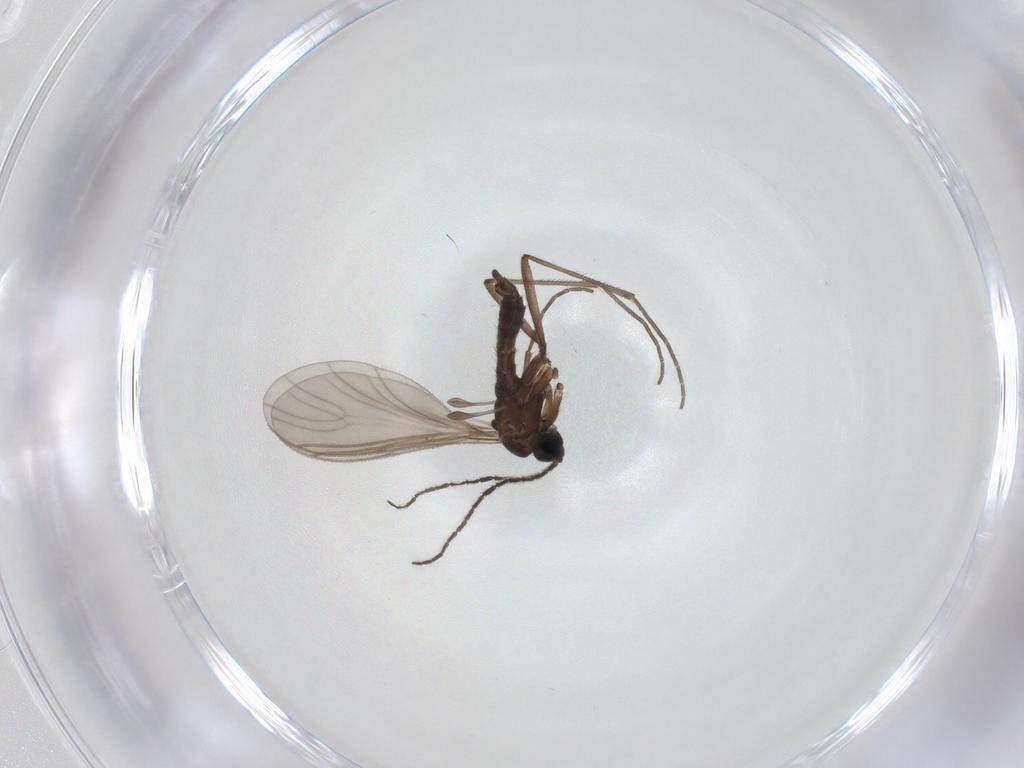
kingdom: Animalia
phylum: Arthropoda
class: Insecta
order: Diptera
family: Sciaridae
